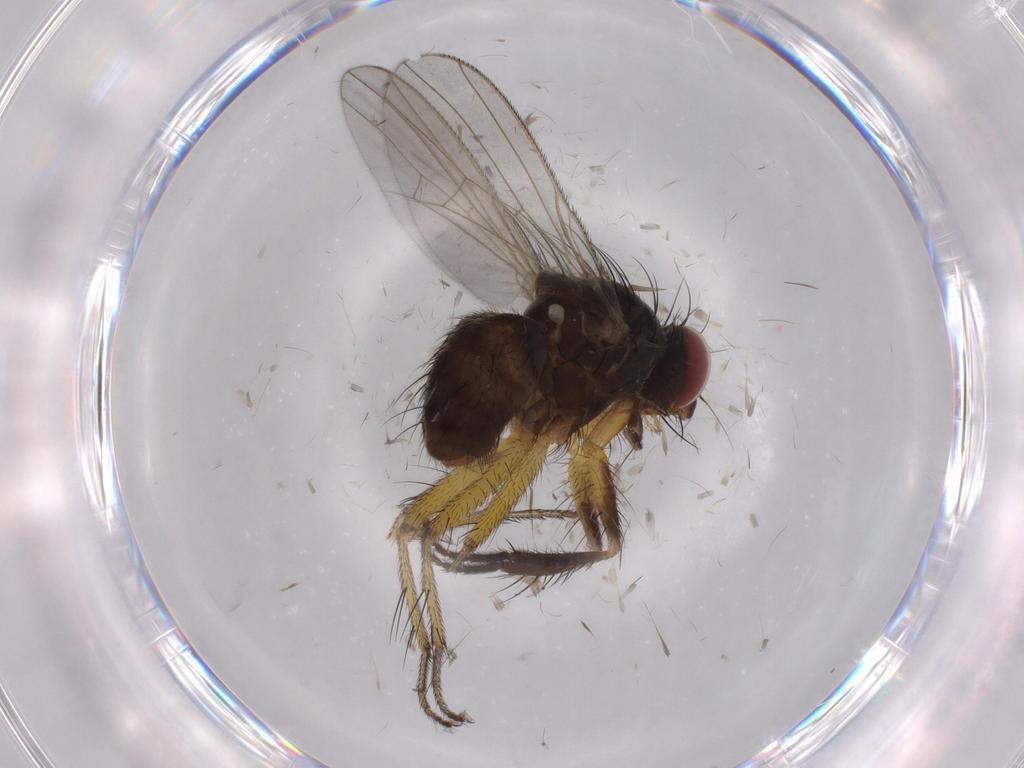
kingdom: Animalia
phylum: Arthropoda
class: Insecta
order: Diptera
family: Muscidae
